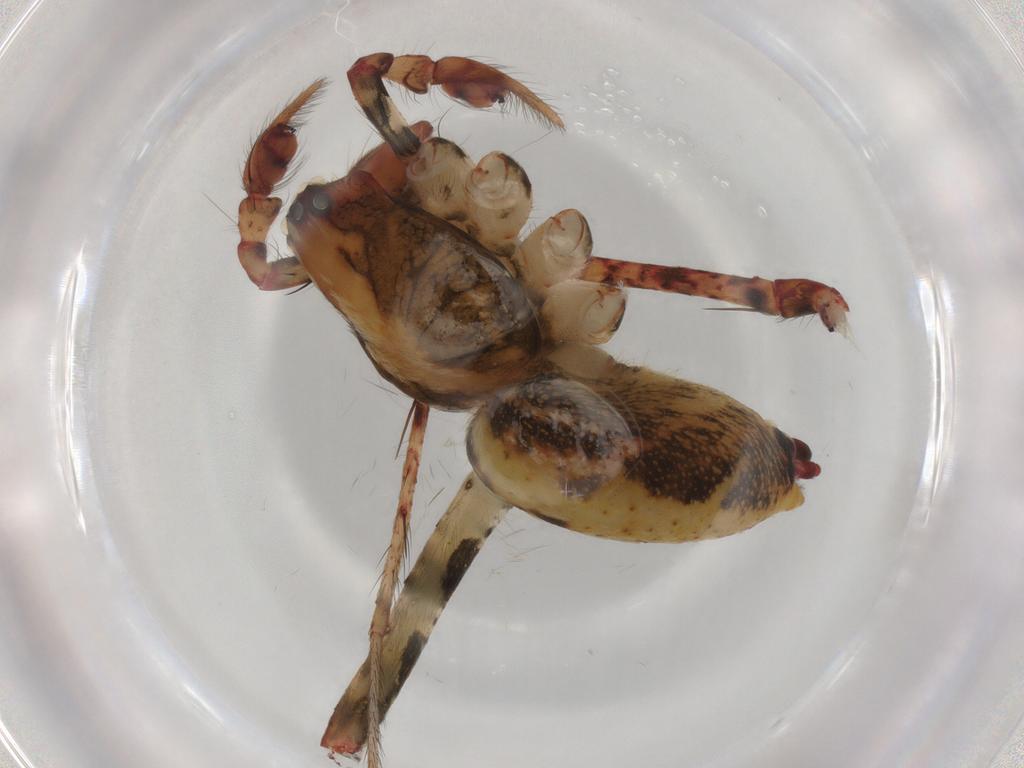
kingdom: Animalia
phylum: Arthropoda
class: Arachnida
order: Araneae
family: Lycosidae
